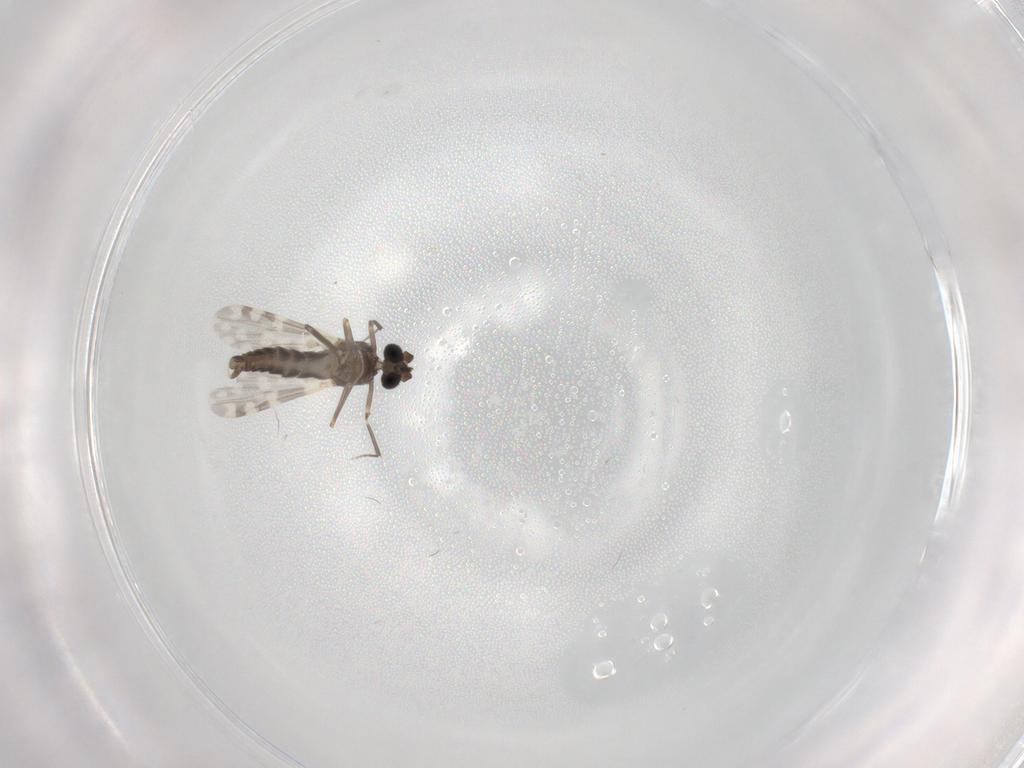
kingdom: Animalia
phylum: Arthropoda
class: Insecta
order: Diptera
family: Ceratopogonidae
